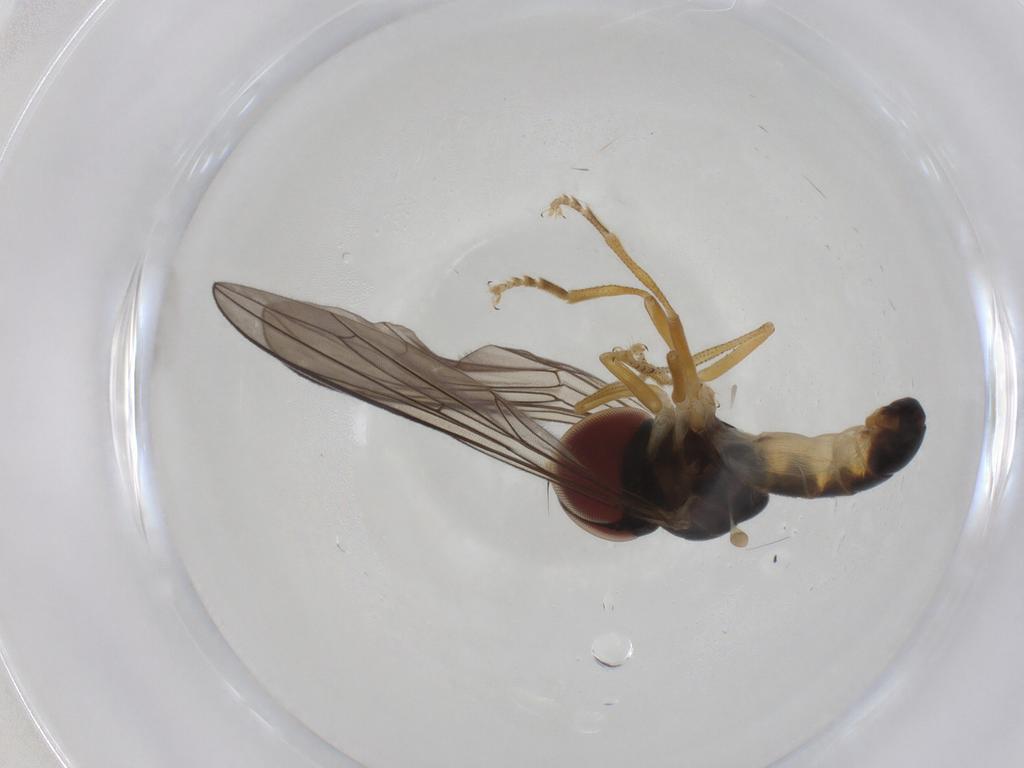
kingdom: Animalia
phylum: Arthropoda
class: Insecta
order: Diptera
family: Pipunculidae
